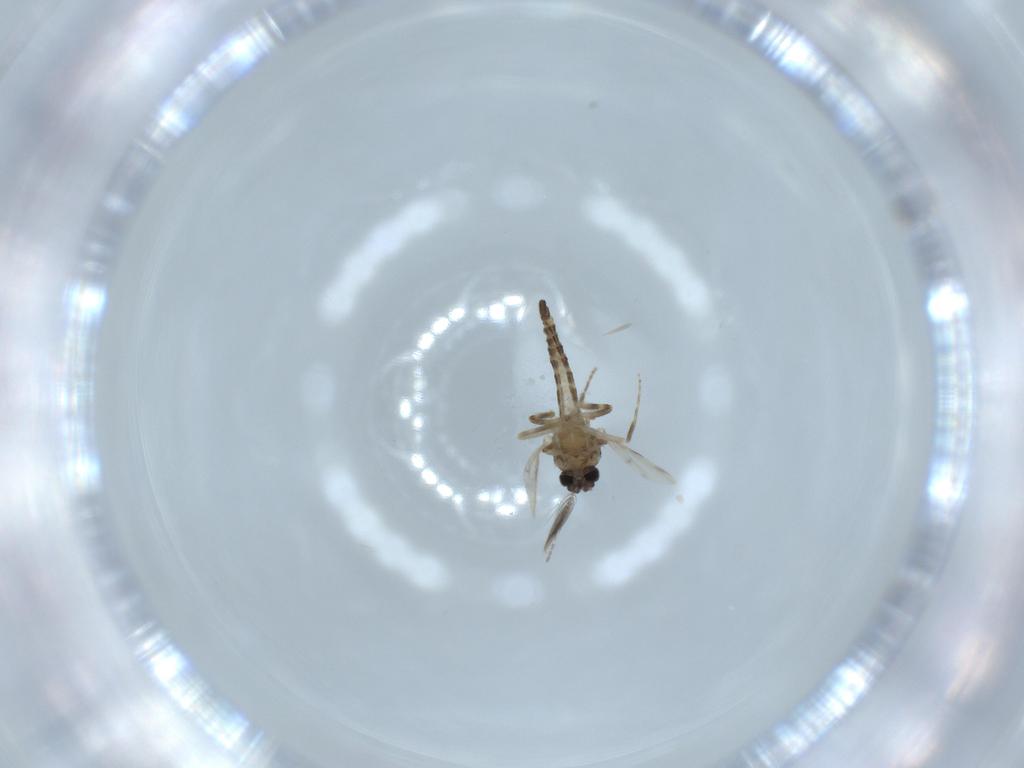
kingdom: Animalia
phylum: Arthropoda
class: Insecta
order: Diptera
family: Ceratopogonidae
